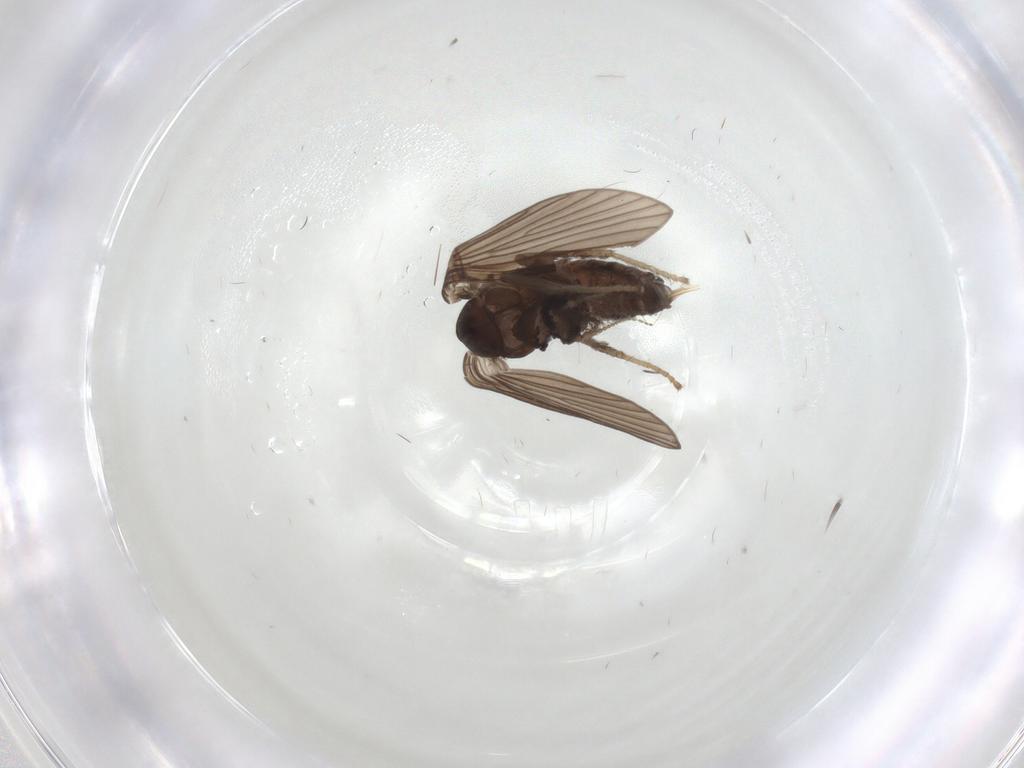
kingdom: Animalia
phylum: Arthropoda
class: Insecta
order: Diptera
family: Psychodidae
